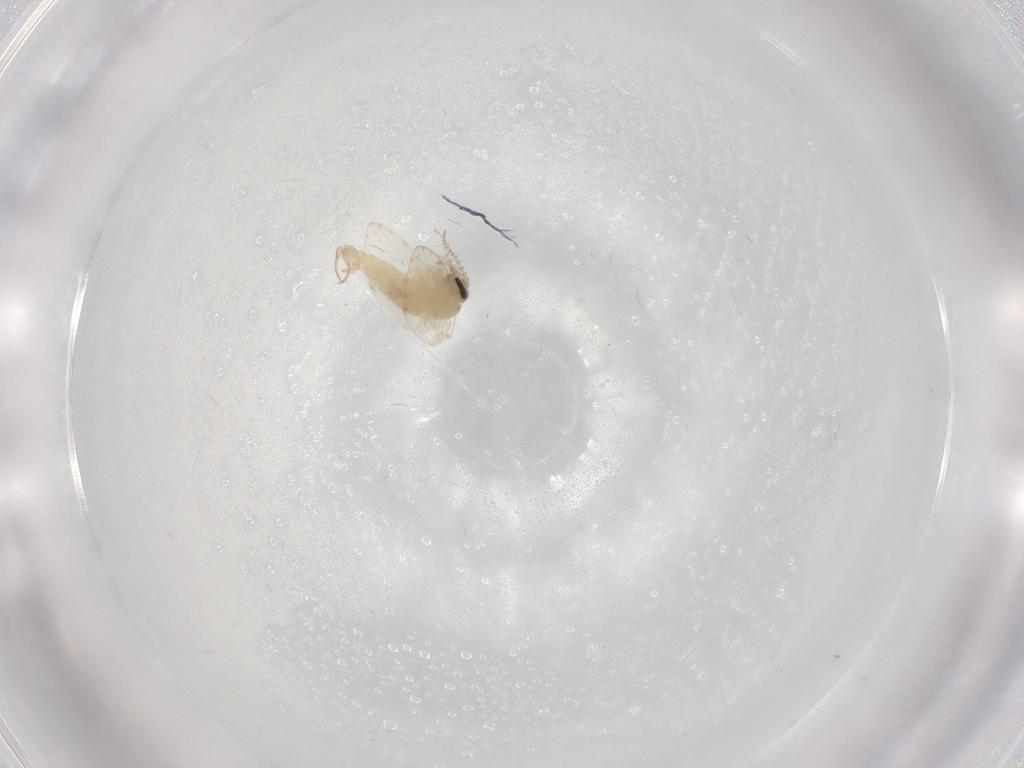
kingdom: Animalia
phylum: Arthropoda
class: Insecta
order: Diptera
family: Psychodidae
